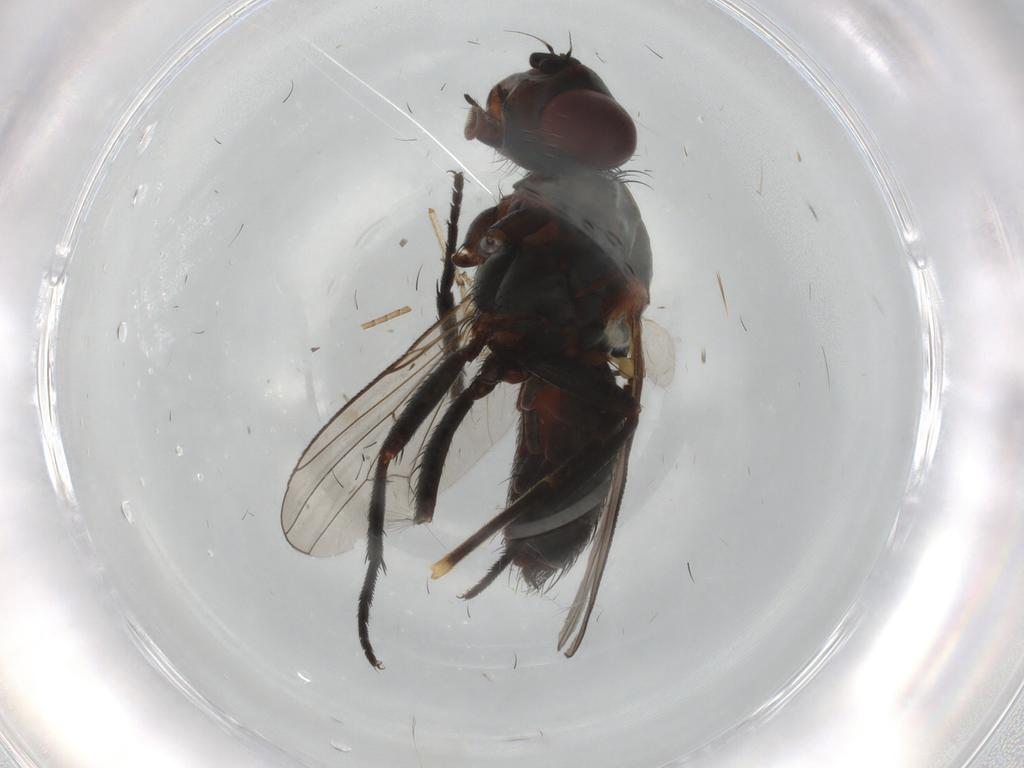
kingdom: Animalia
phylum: Arthropoda
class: Insecta
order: Diptera
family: Anthomyiidae
